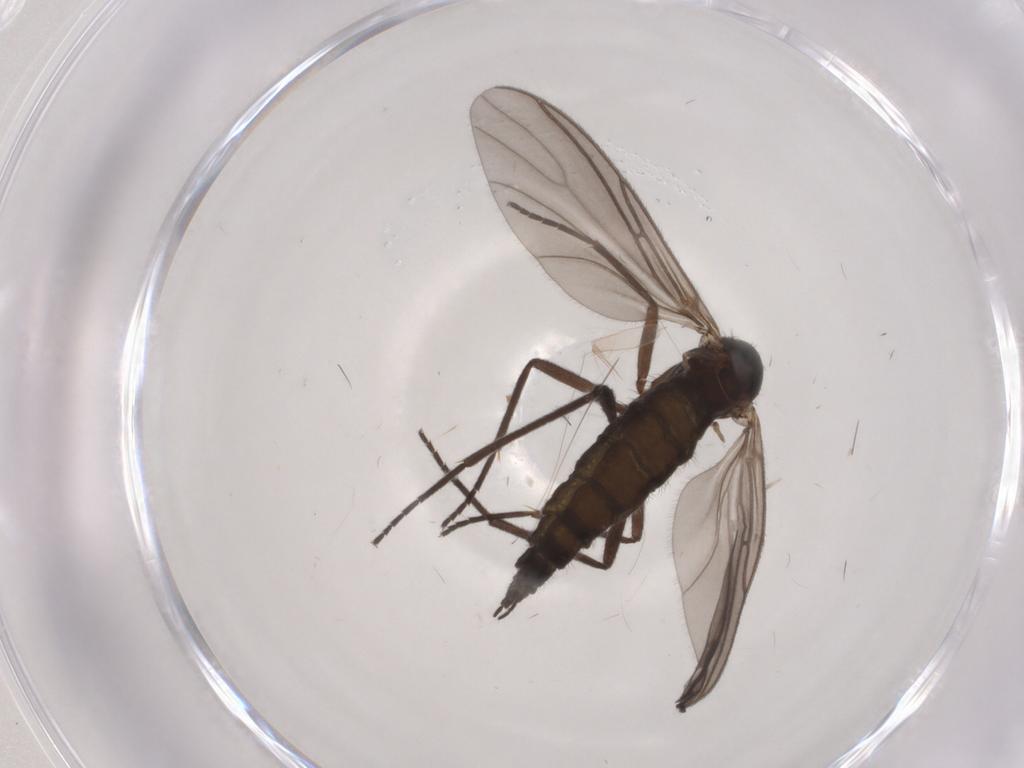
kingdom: Animalia
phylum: Arthropoda
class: Insecta
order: Diptera
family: Sciaridae
